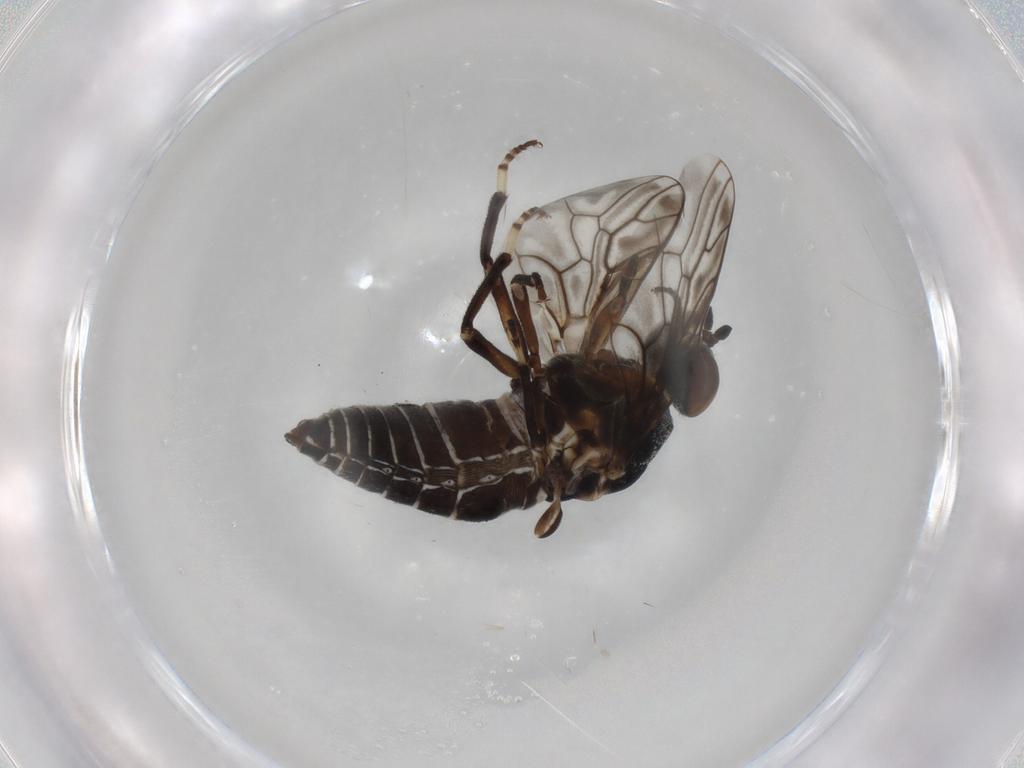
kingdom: Animalia
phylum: Arthropoda
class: Insecta
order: Diptera
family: Scenopinidae
